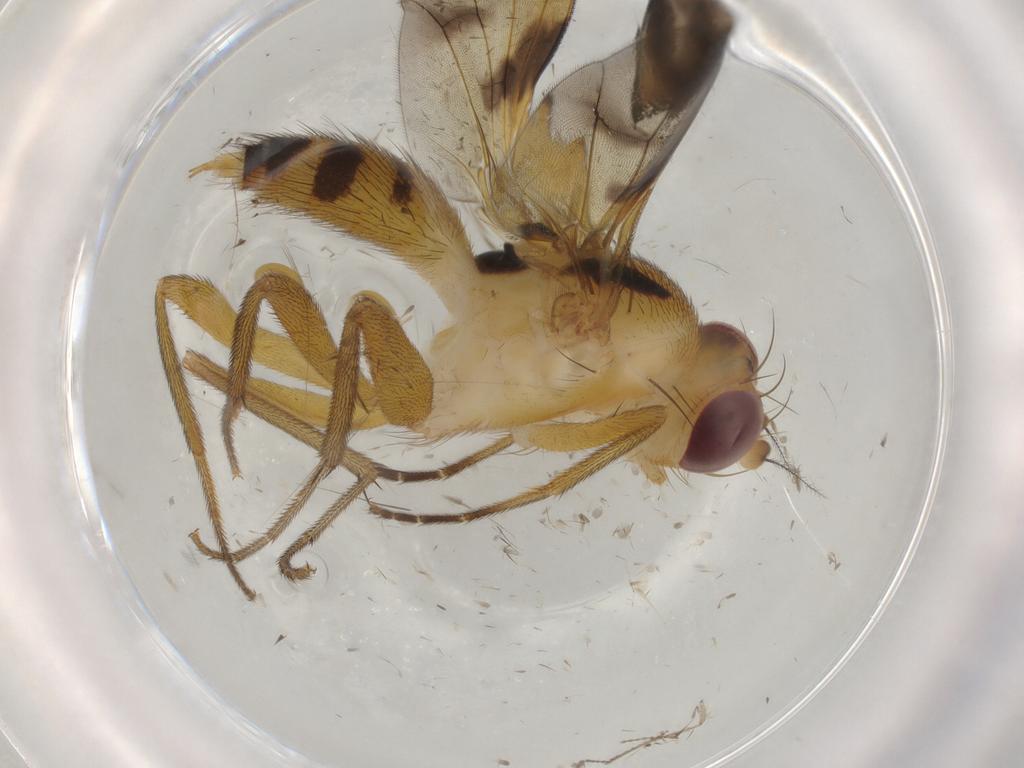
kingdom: Animalia
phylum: Arthropoda
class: Insecta
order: Diptera
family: Clusiidae
